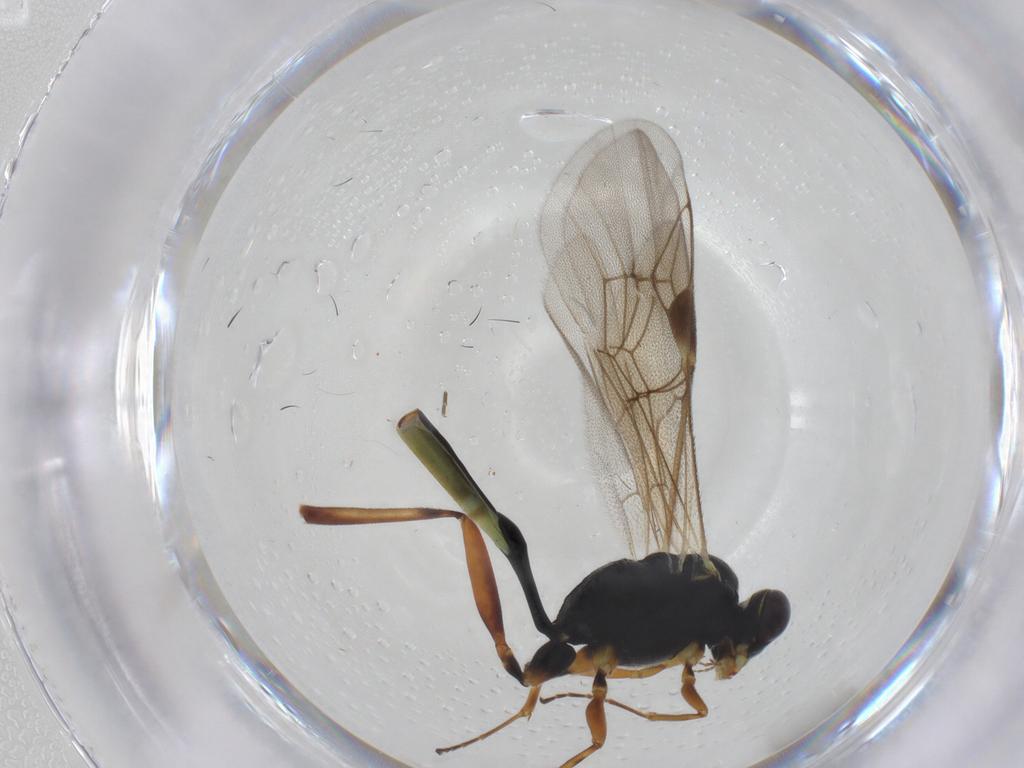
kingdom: Animalia
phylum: Arthropoda
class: Insecta
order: Hymenoptera
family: Ichneumonidae
